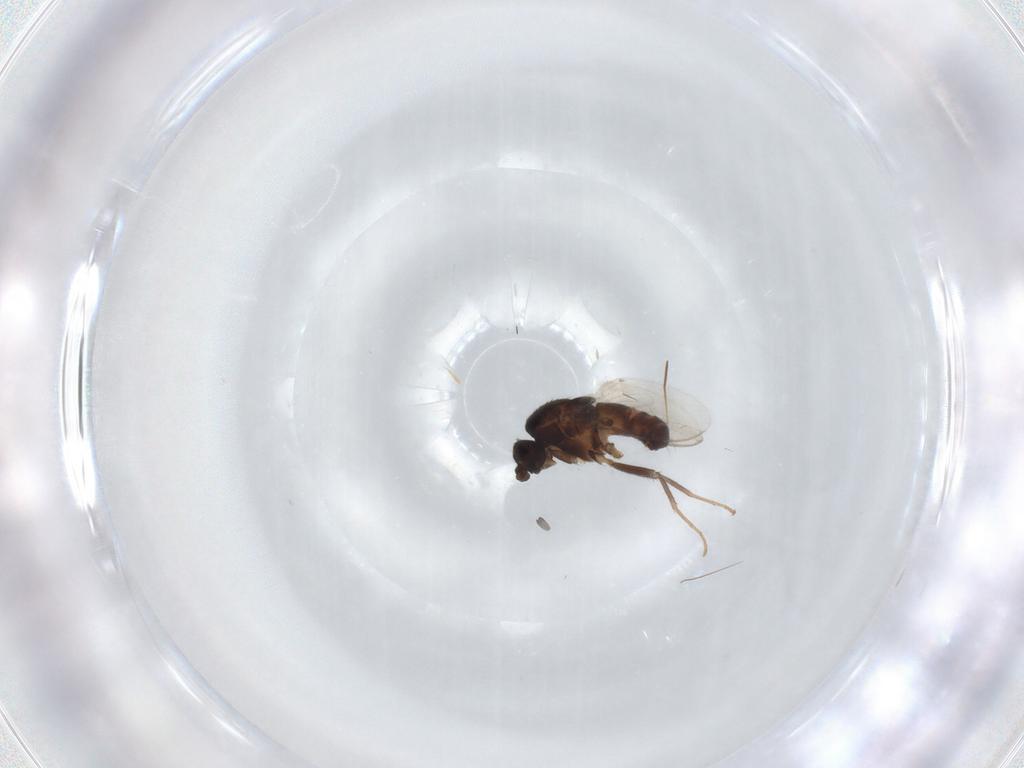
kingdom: Animalia
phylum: Arthropoda
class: Insecta
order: Diptera
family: Sphaeroceridae
